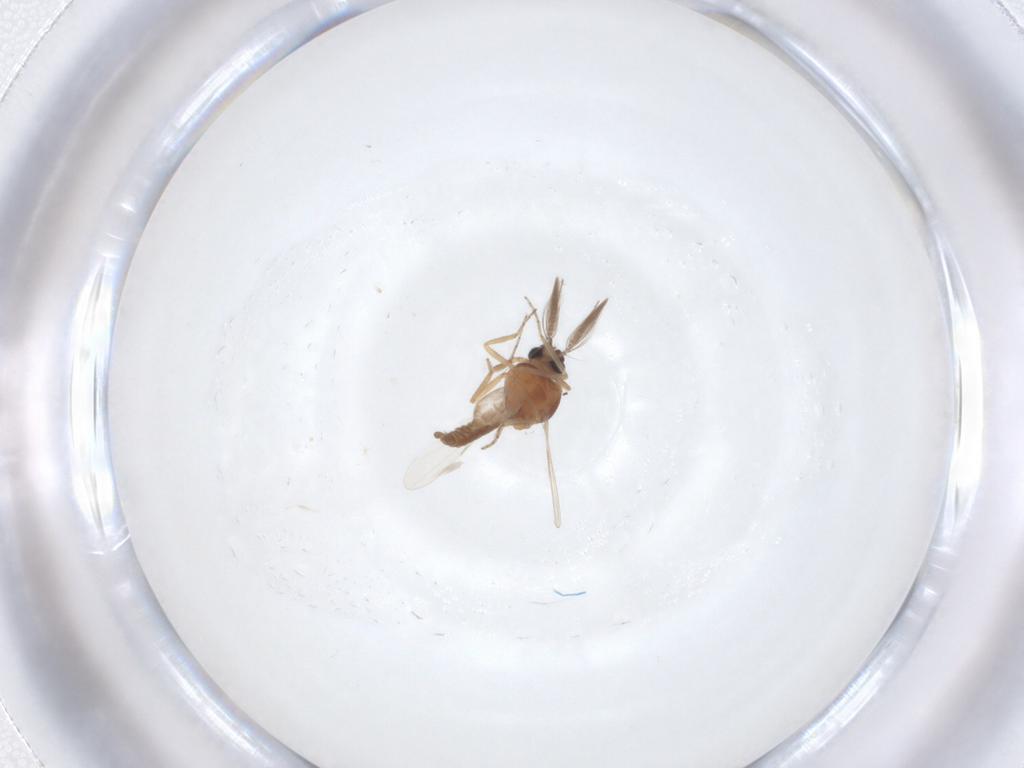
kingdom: Animalia
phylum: Arthropoda
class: Insecta
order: Diptera
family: Ceratopogonidae
